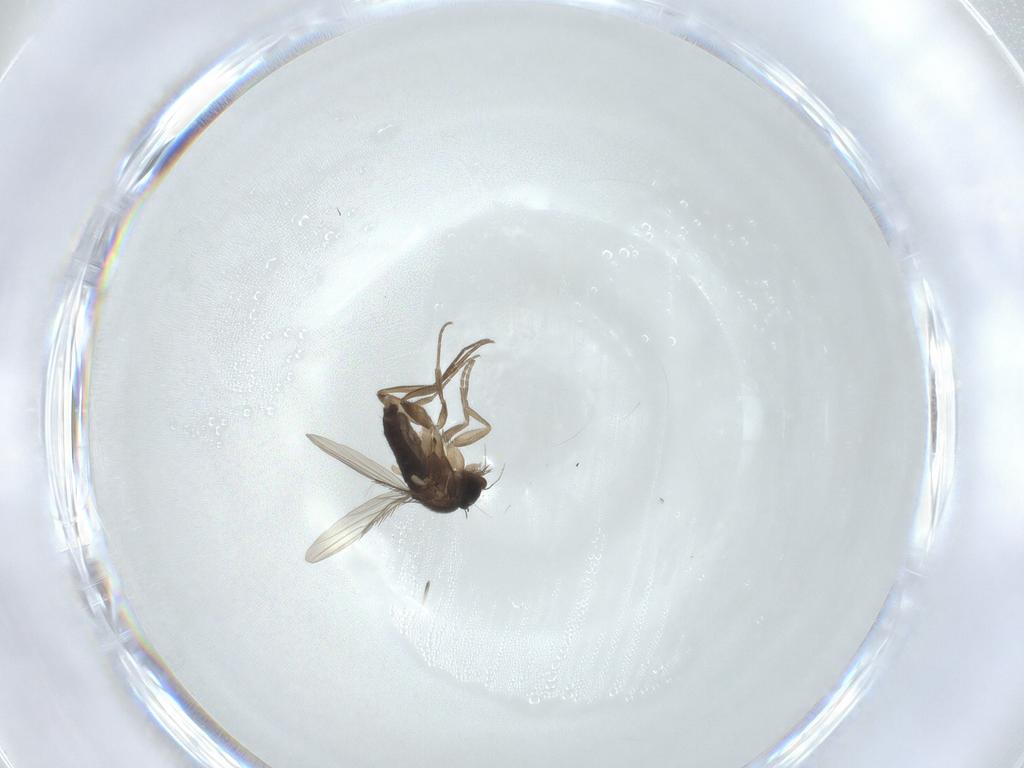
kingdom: Animalia
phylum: Arthropoda
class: Insecta
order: Diptera
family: Phoridae
